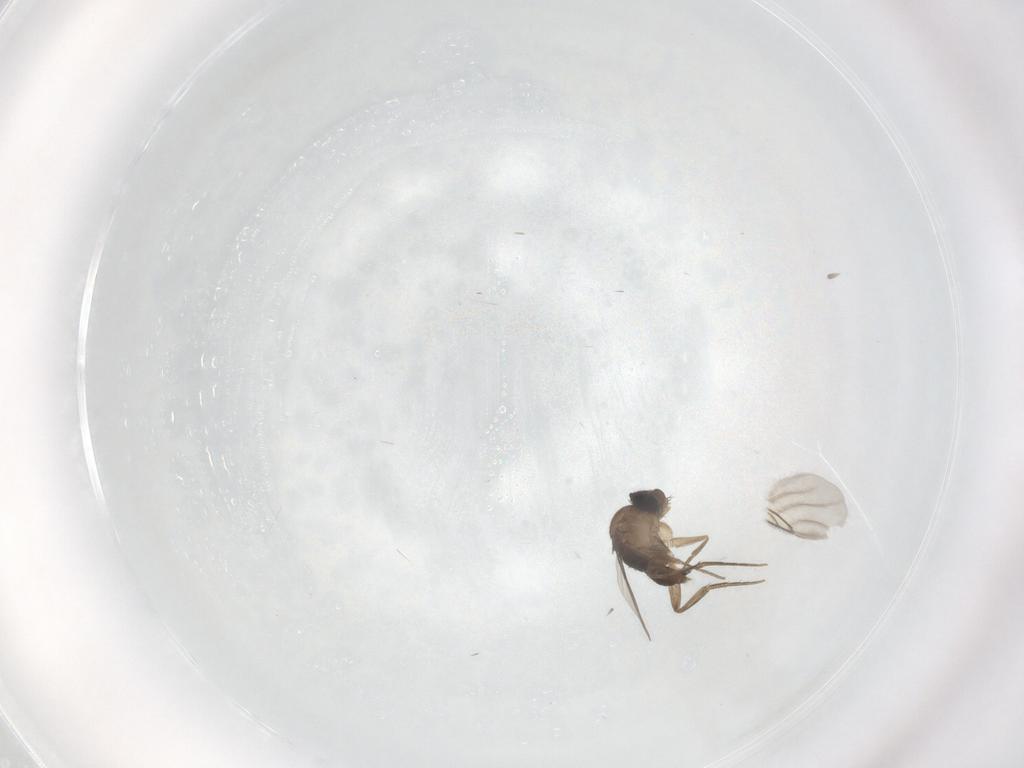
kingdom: Animalia
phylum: Arthropoda
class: Insecta
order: Diptera
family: Phoridae
